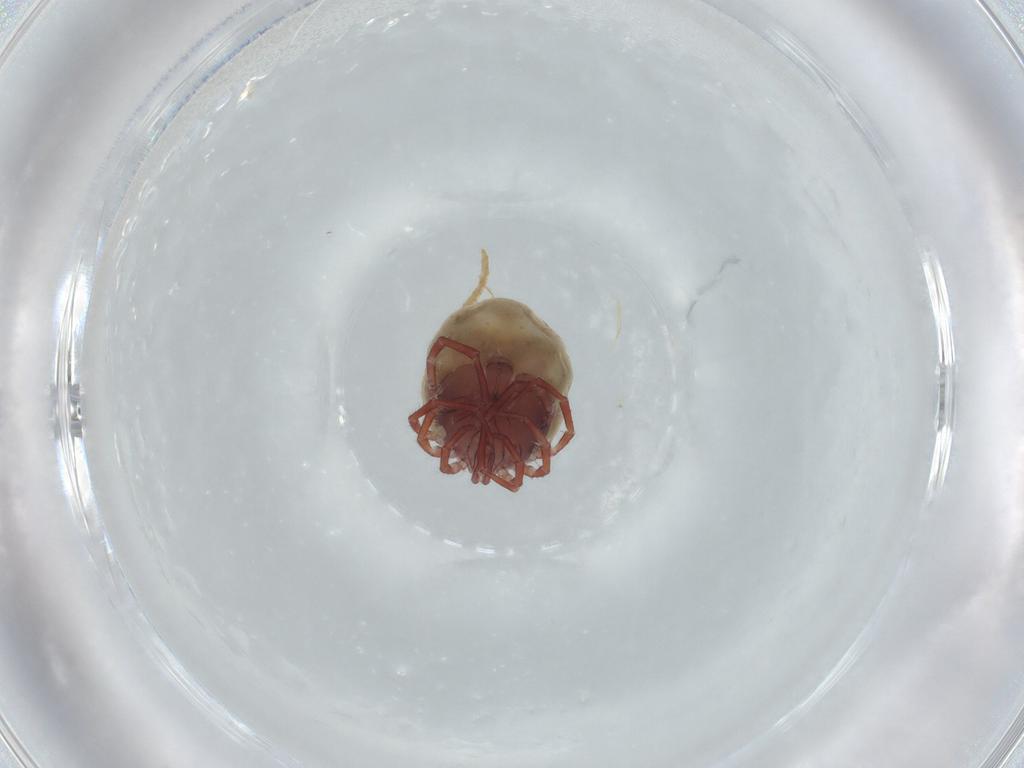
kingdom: Animalia
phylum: Arthropoda
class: Arachnida
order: Trombidiformes
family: Lebertiidae
